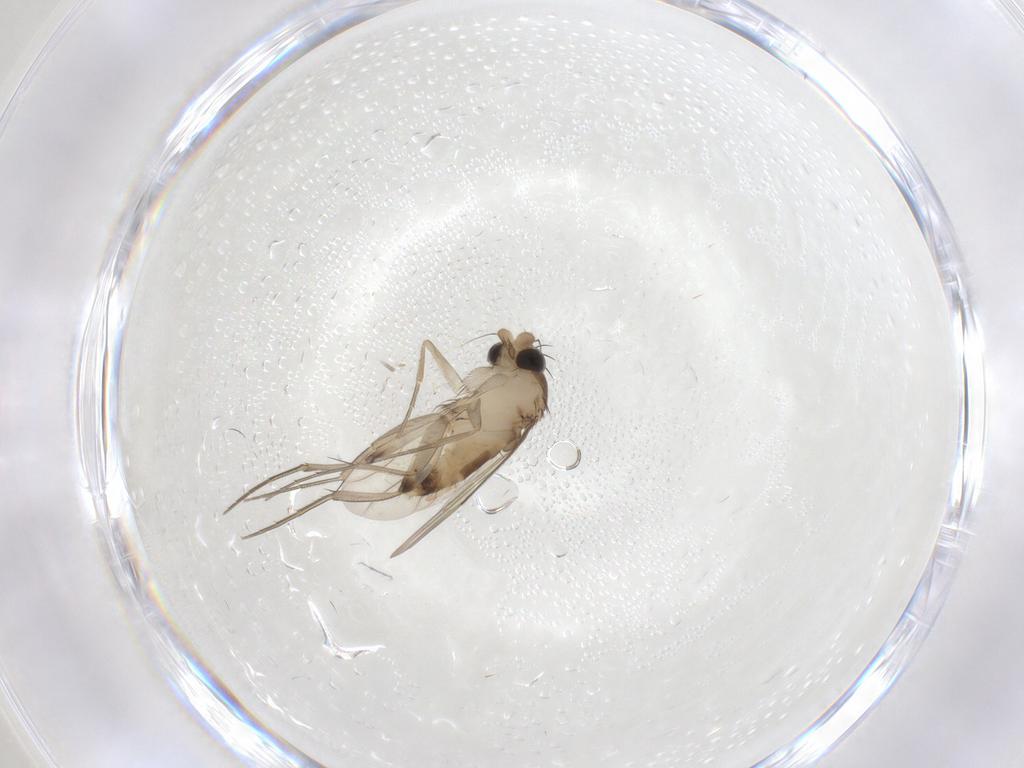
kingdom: Animalia
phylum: Arthropoda
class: Insecta
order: Diptera
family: Phoridae
